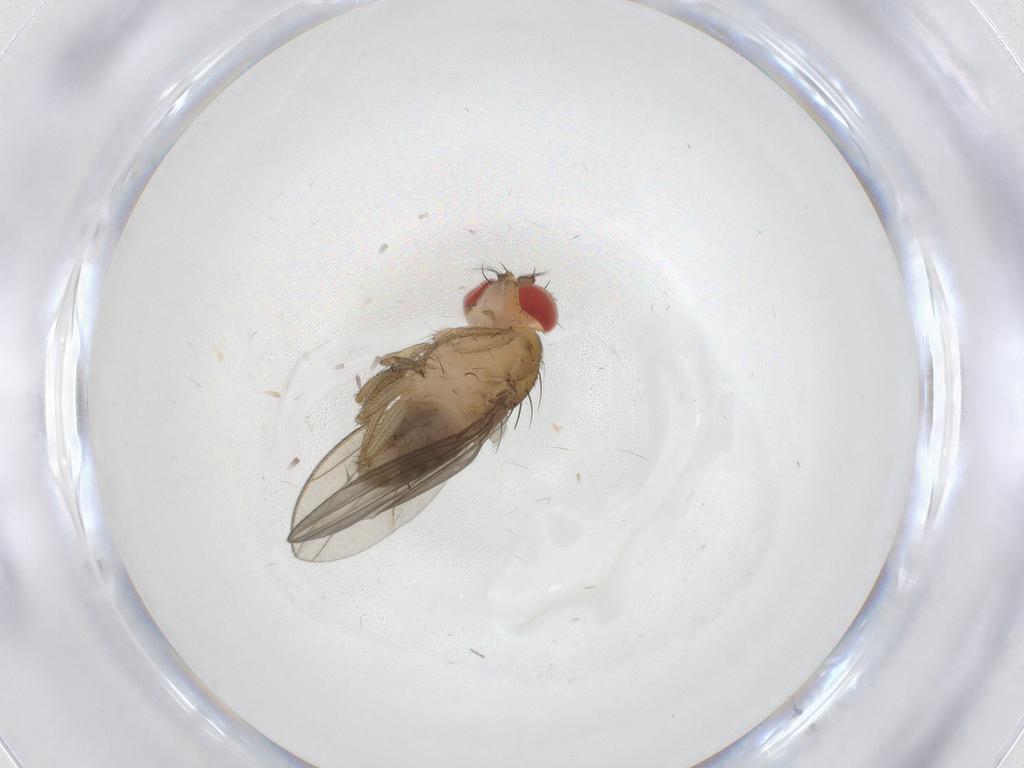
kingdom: Animalia
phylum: Arthropoda
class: Insecta
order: Diptera
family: Drosophilidae
